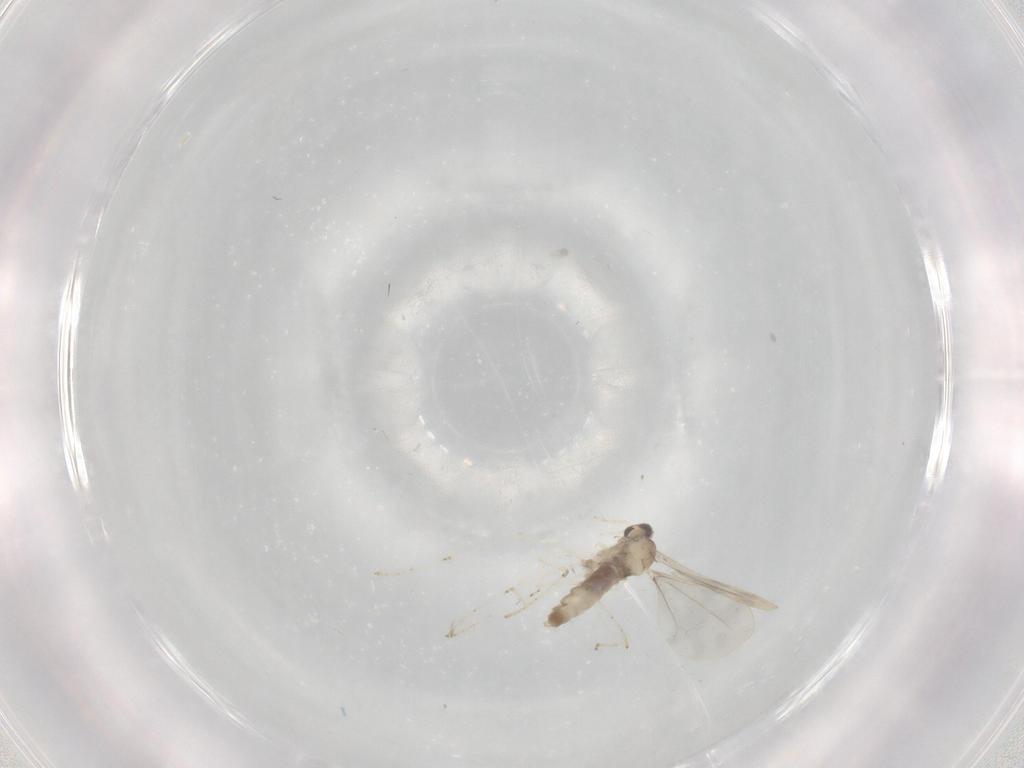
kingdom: Animalia
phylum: Arthropoda
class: Insecta
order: Diptera
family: Cecidomyiidae
